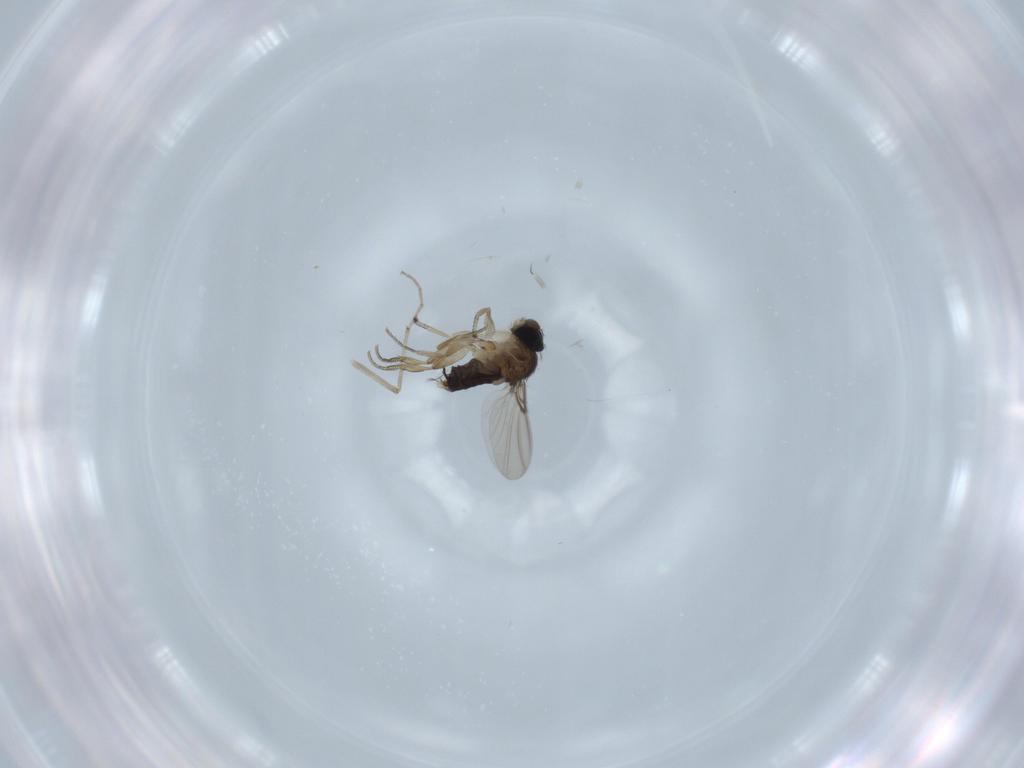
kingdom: Animalia
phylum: Arthropoda
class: Insecta
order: Diptera
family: Phoridae
